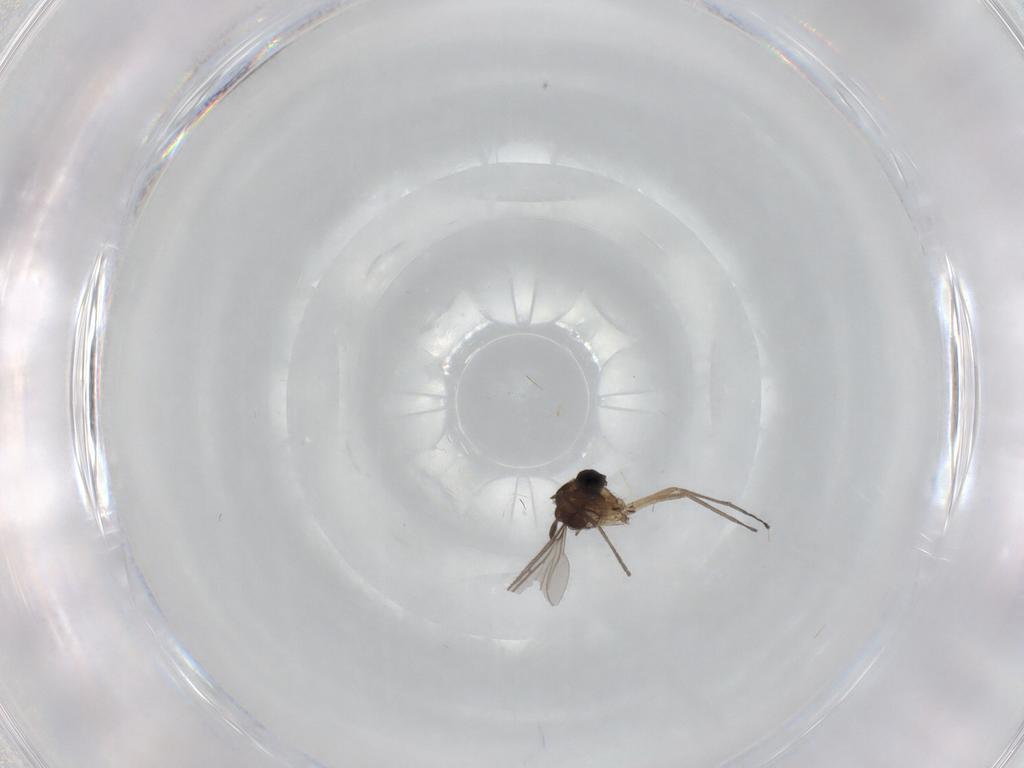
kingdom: Animalia
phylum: Arthropoda
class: Insecta
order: Diptera
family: Sciaridae
